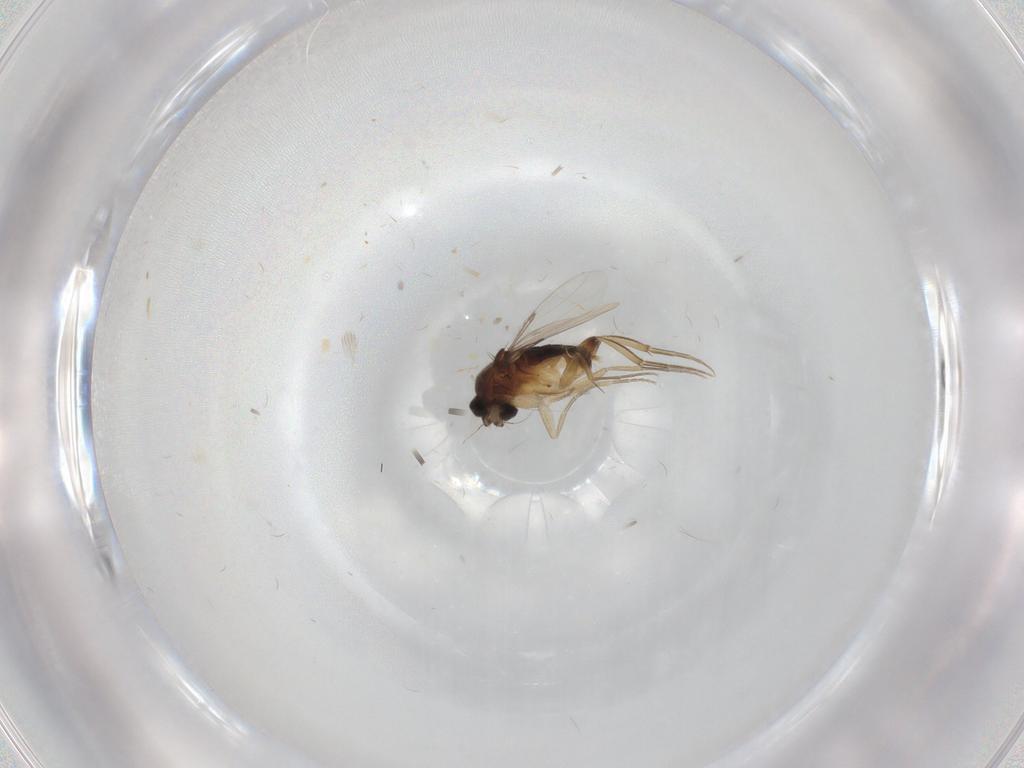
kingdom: Animalia
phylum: Arthropoda
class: Insecta
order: Diptera
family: Phoridae
